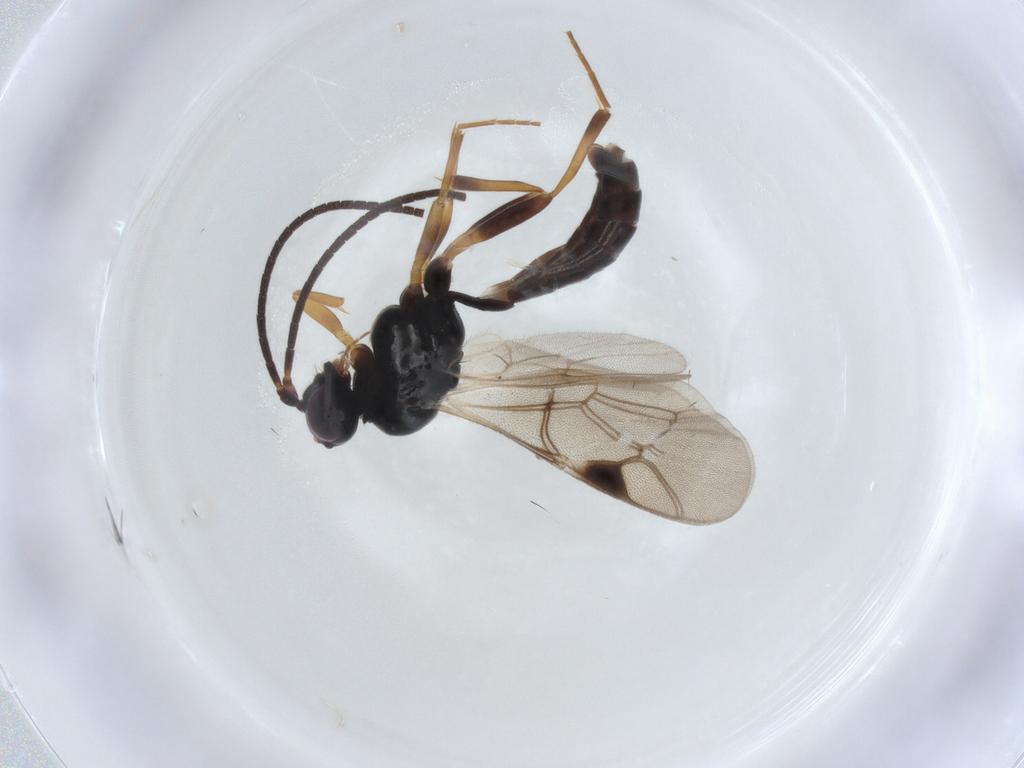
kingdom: Animalia
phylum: Arthropoda
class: Insecta
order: Hymenoptera
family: Ichneumonidae
